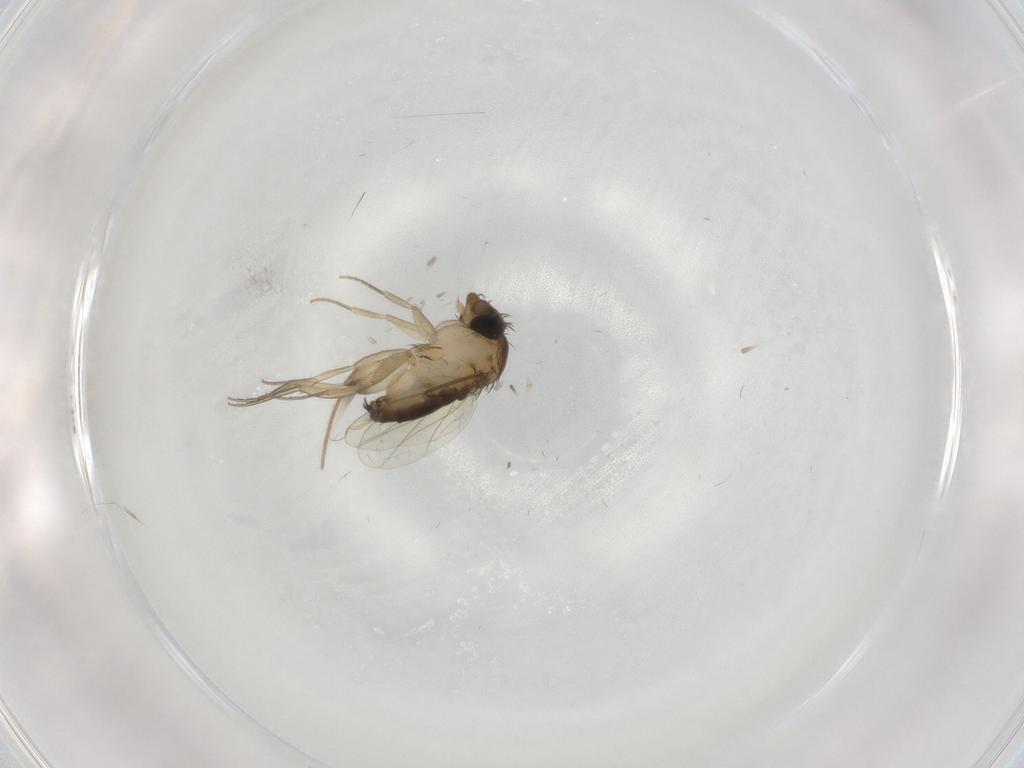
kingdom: Animalia
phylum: Arthropoda
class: Insecta
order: Diptera
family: Phoridae
